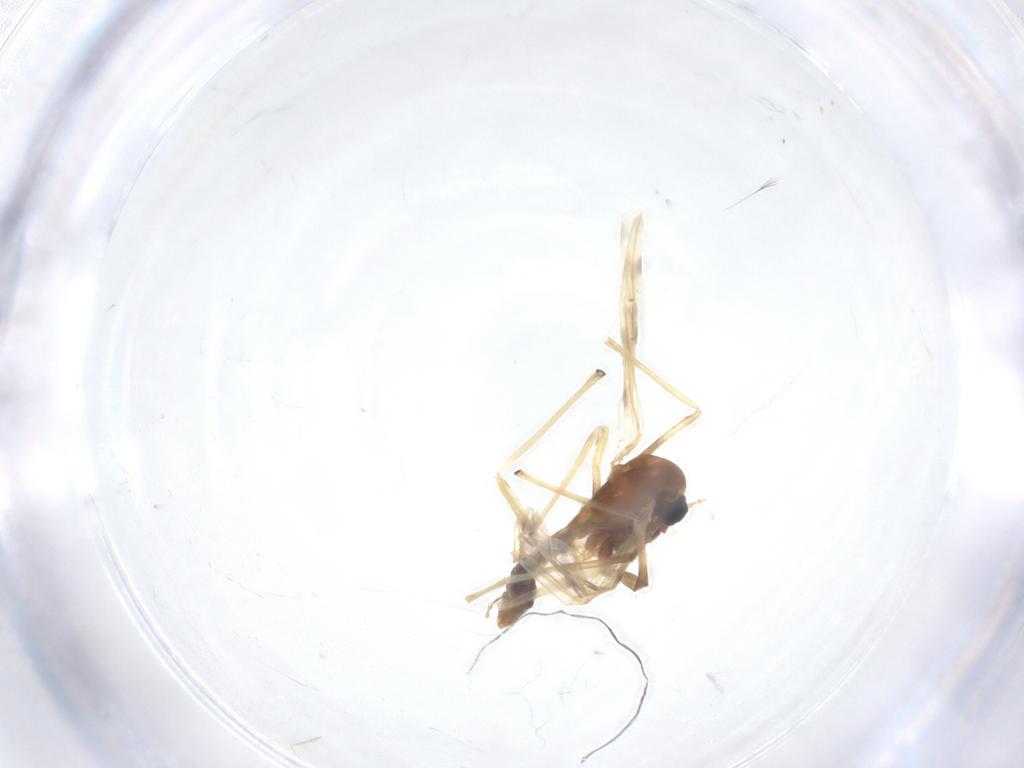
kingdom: Animalia
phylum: Arthropoda
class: Insecta
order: Diptera
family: Chironomidae
